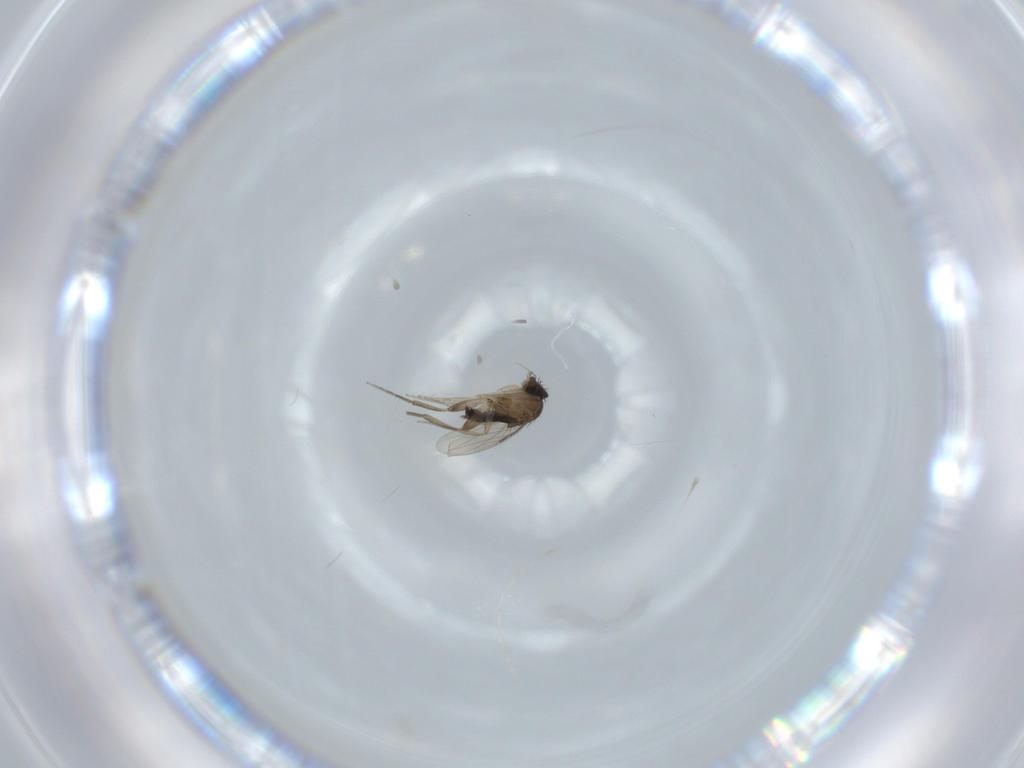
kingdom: Animalia
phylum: Arthropoda
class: Insecta
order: Diptera
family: Phoridae
